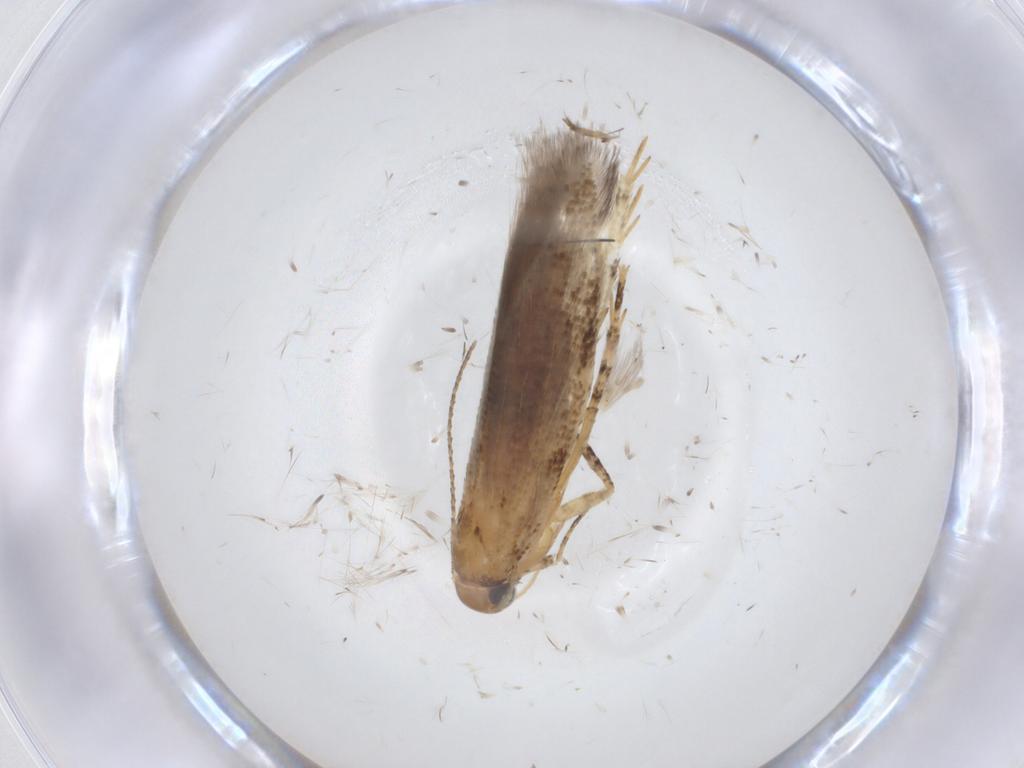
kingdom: Animalia
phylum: Arthropoda
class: Insecta
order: Lepidoptera
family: Gelechiidae
